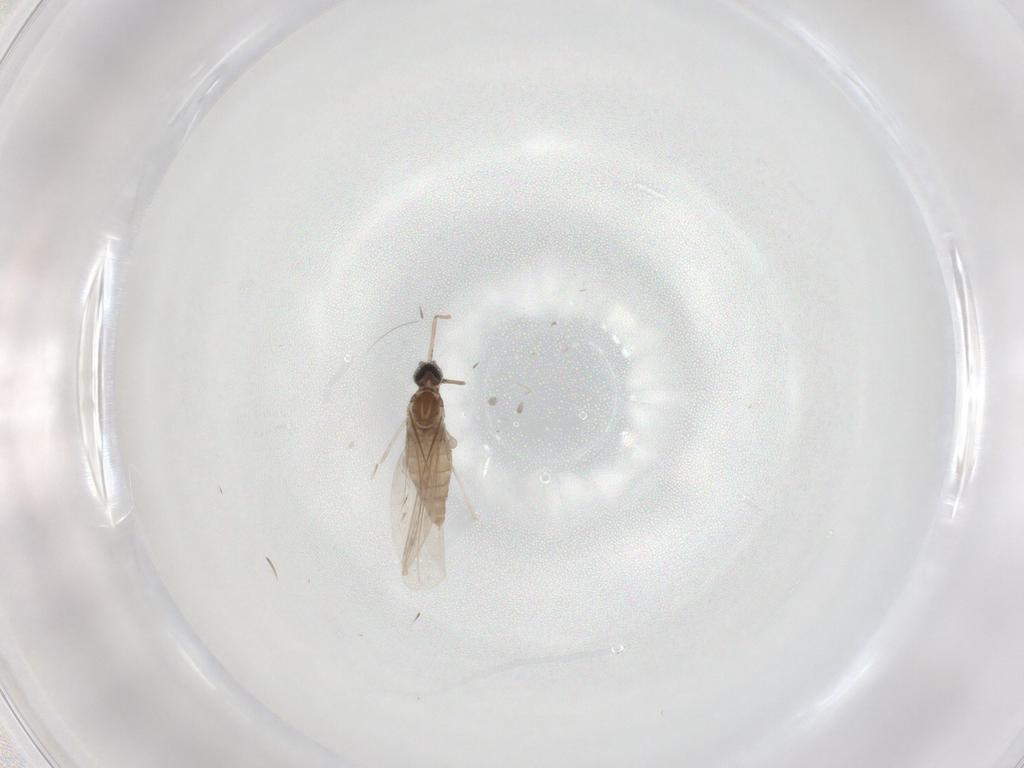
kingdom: Animalia
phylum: Arthropoda
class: Insecta
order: Diptera
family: Cecidomyiidae
